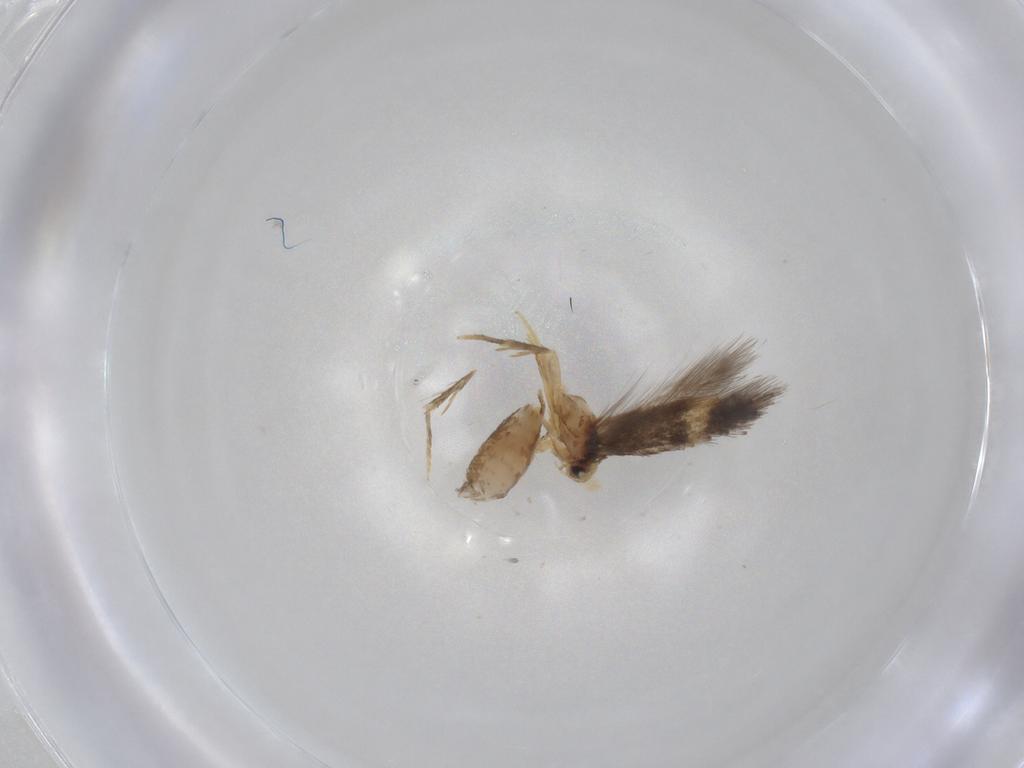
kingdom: Animalia
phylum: Arthropoda
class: Insecta
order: Lepidoptera
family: Nepticulidae
